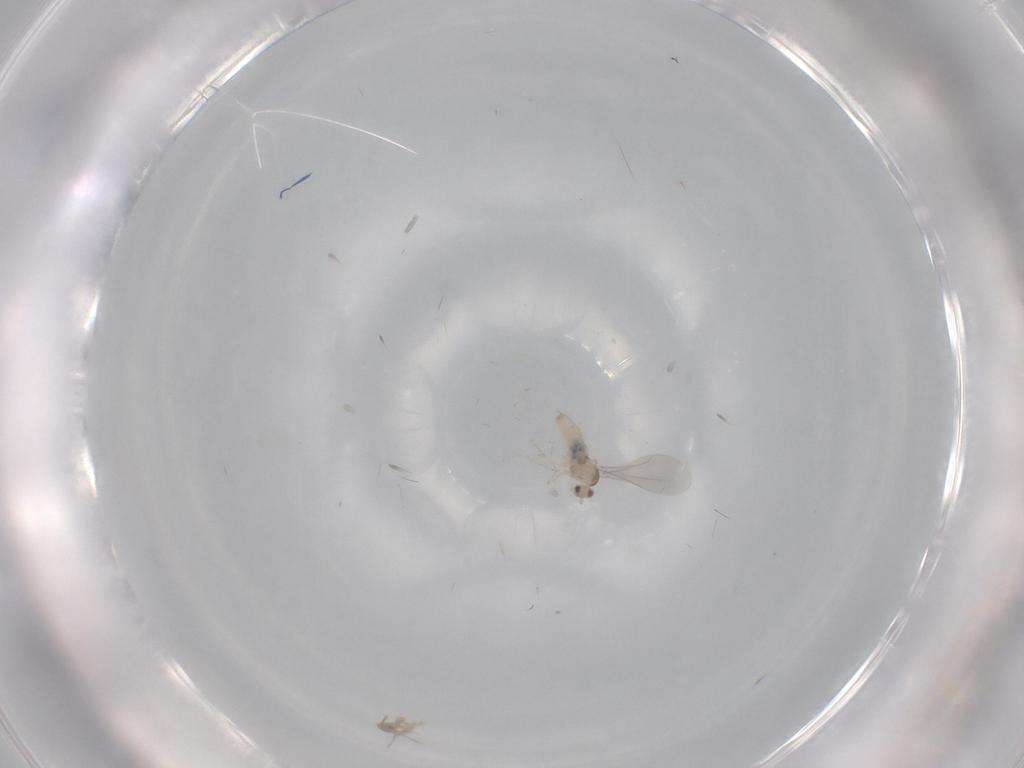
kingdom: Animalia
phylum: Arthropoda
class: Insecta
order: Diptera
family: Cecidomyiidae
